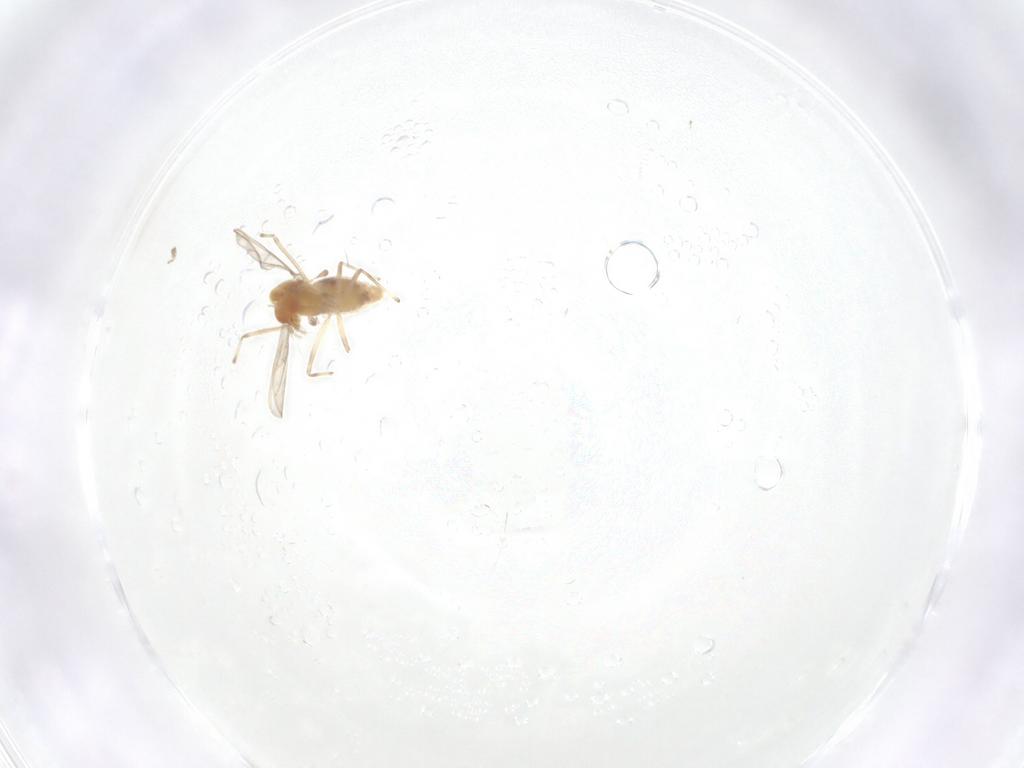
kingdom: Animalia
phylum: Arthropoda
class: Insecta
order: Diptera
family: Chironomidae
